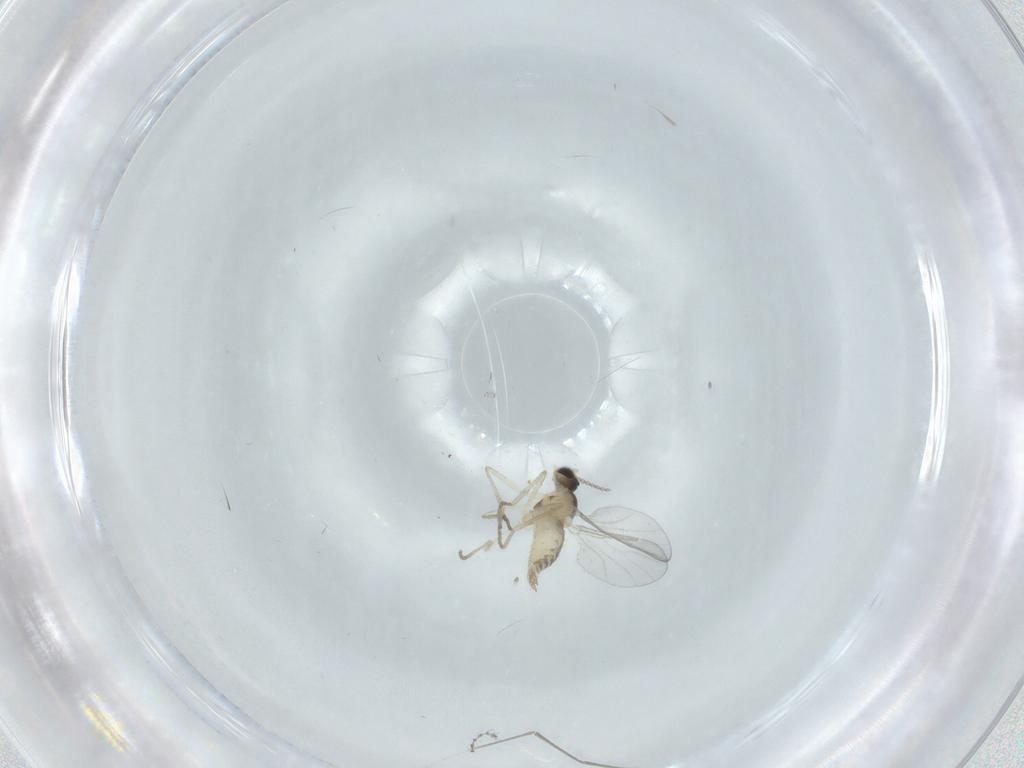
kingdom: Animalia
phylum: Arthropoda
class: Insecta
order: Diptera
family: Cecidomyiidae
